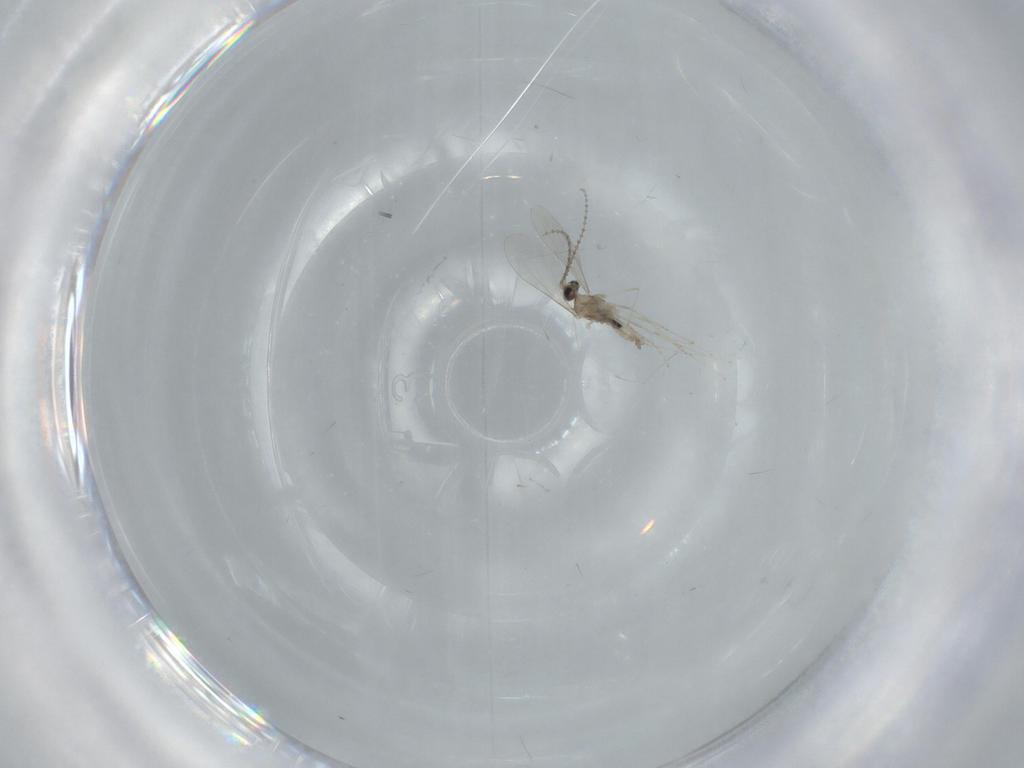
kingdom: Animalia
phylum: Arthropoda
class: Insecta
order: Diptera
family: Cecidomyiidae
